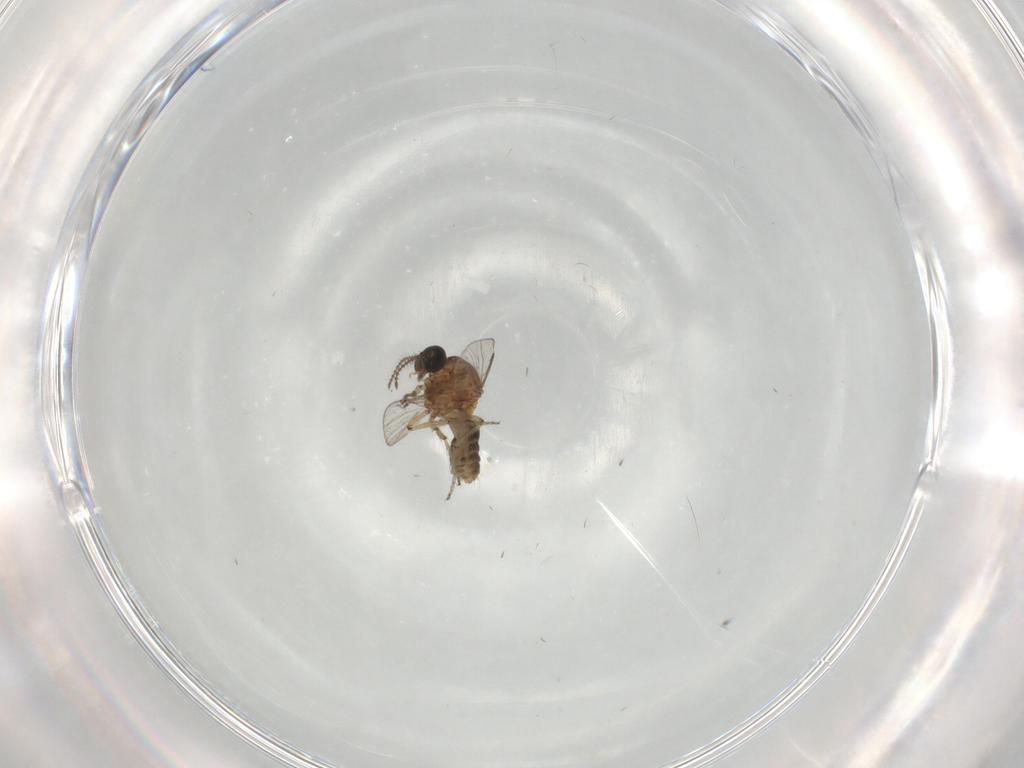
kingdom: Animalia
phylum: Arthropoda
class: Insecta
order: Diptera
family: Ceratopogonidae
